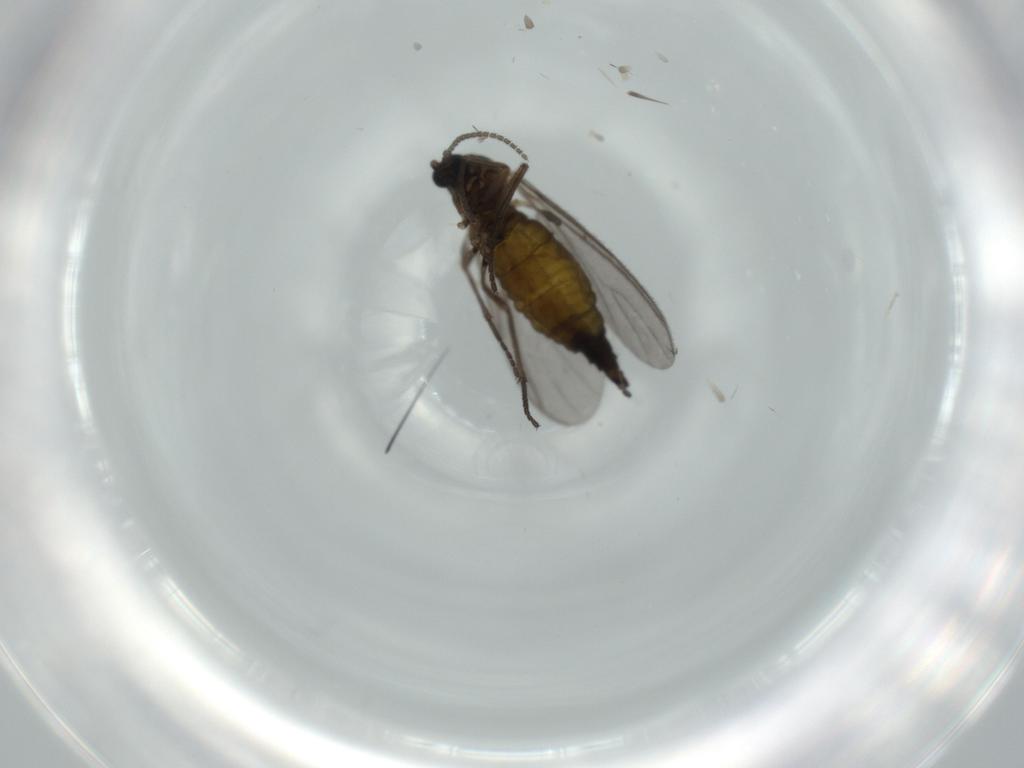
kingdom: Animalia
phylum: Arthropoda
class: Insecta
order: Diptera
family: Sciaridae
